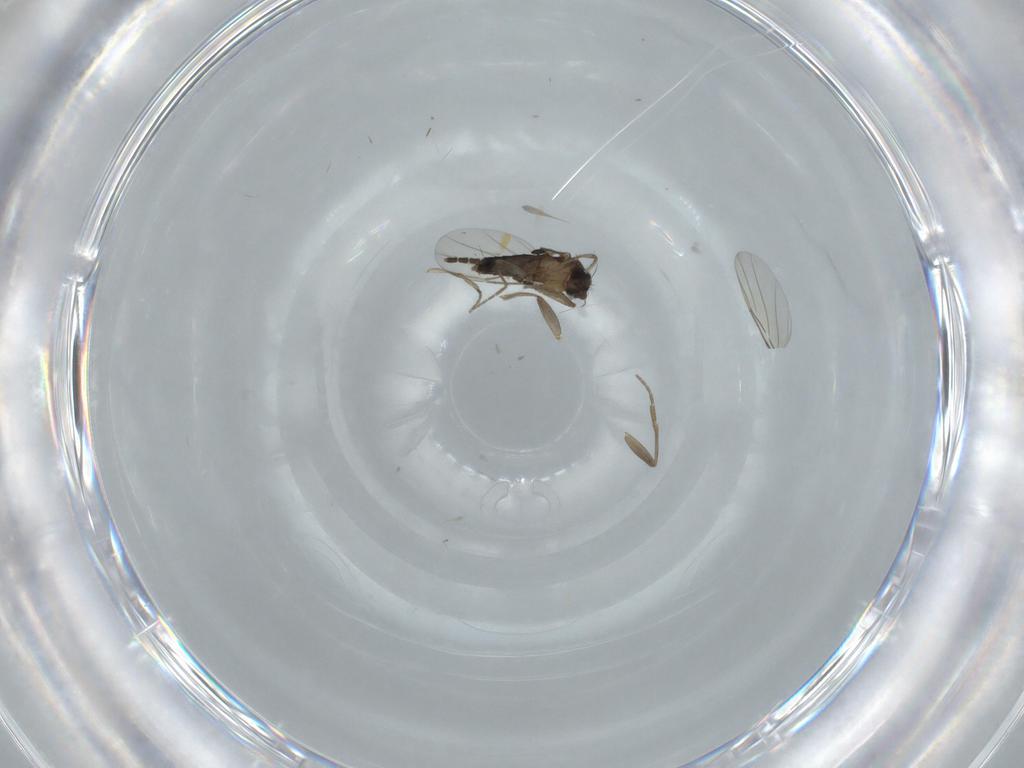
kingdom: Animalia
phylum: Arthropoda
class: Insecta
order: Diptera
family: Phoridae
